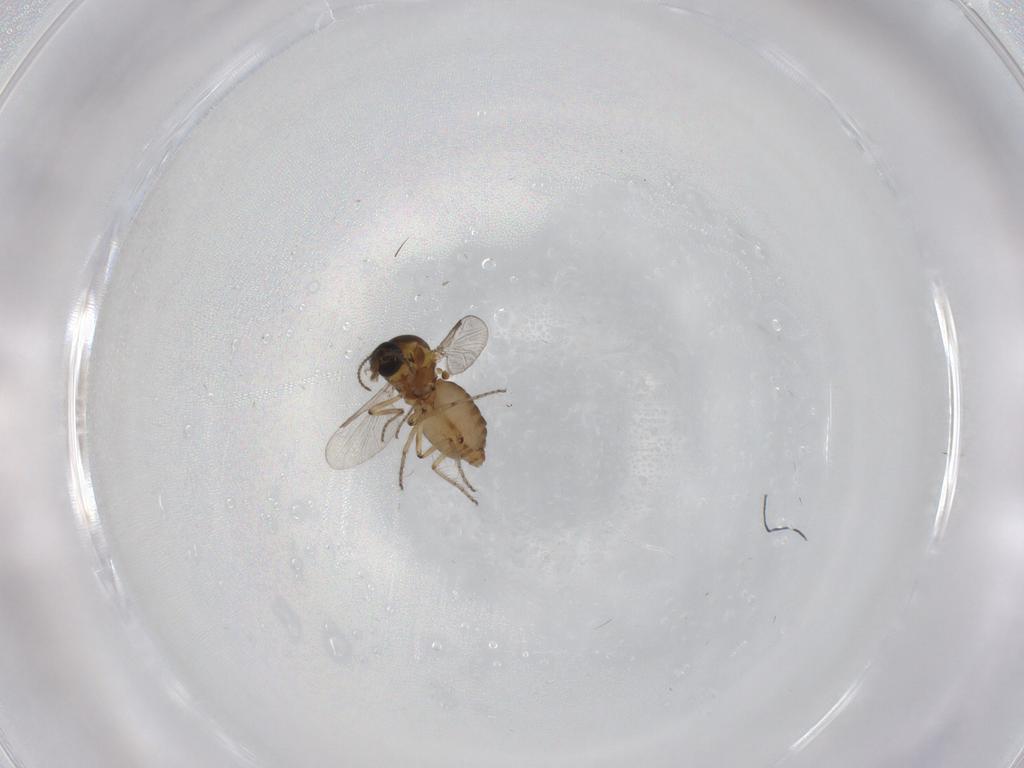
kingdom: Animalia
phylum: Arthropoda
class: Insecta
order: Diptera
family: Ceratopogonidae
